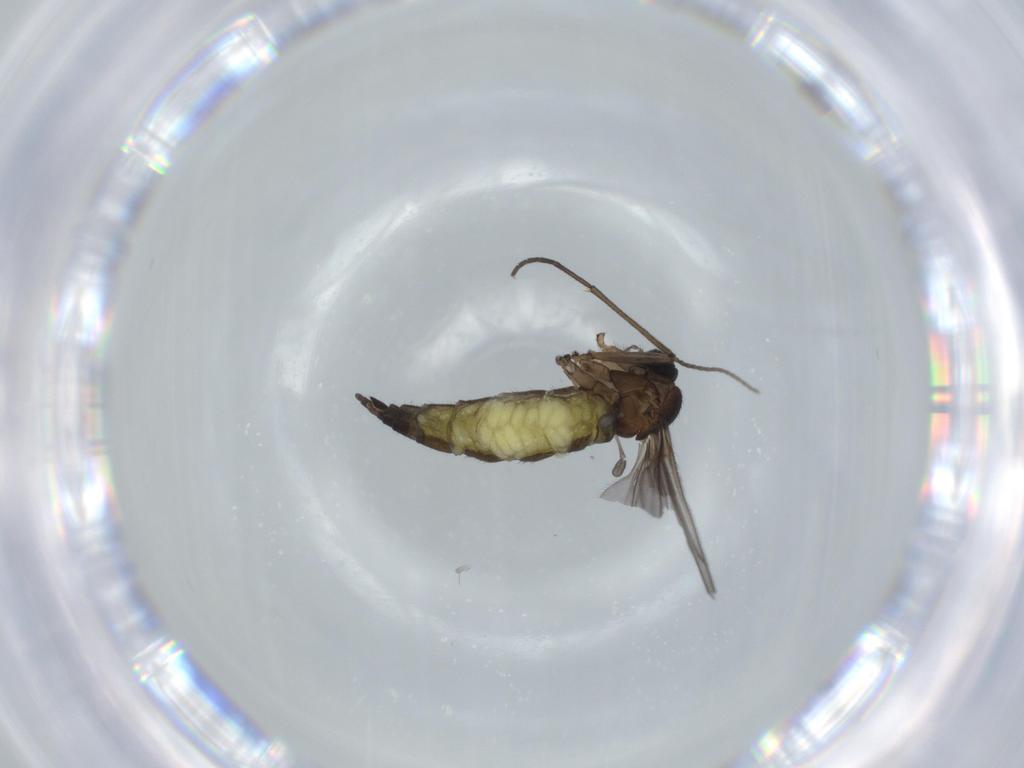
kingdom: Animalia
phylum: Arthropoda
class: Insecta
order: Diptera
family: Sciaridae
